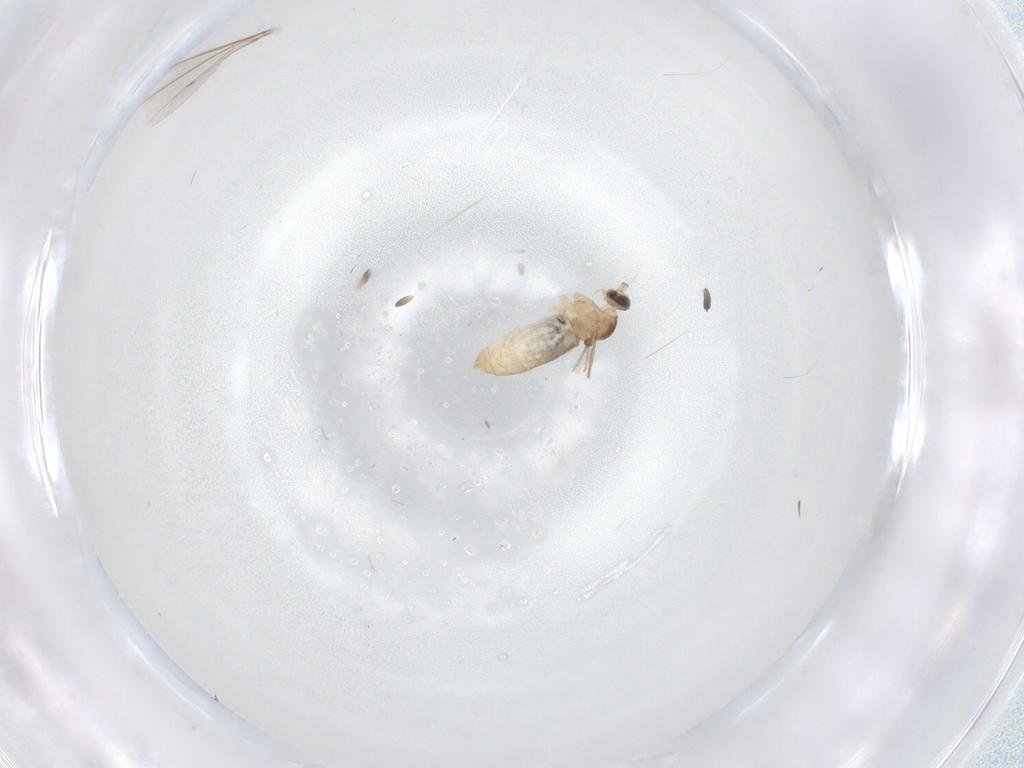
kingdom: Animalia
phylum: Arthropoda
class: Insecta
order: Diptera
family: Cecidomyiidae
